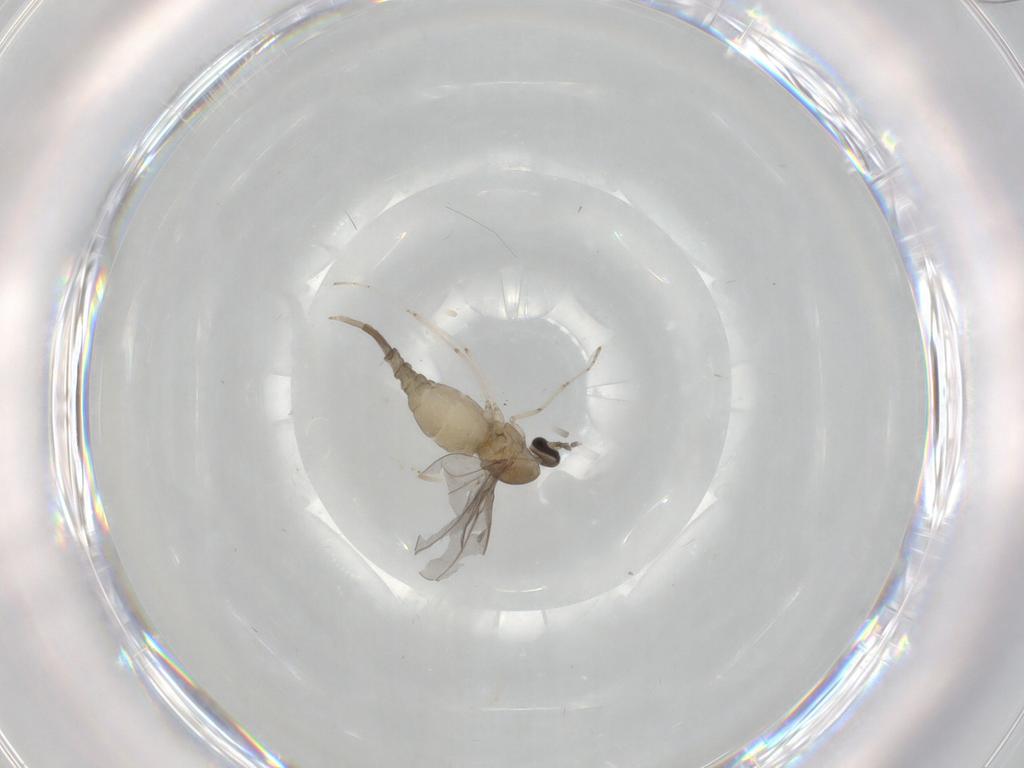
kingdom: Animalia
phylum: Arthropoda
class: Insecta
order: Diptera
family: Cecidomyiidae
